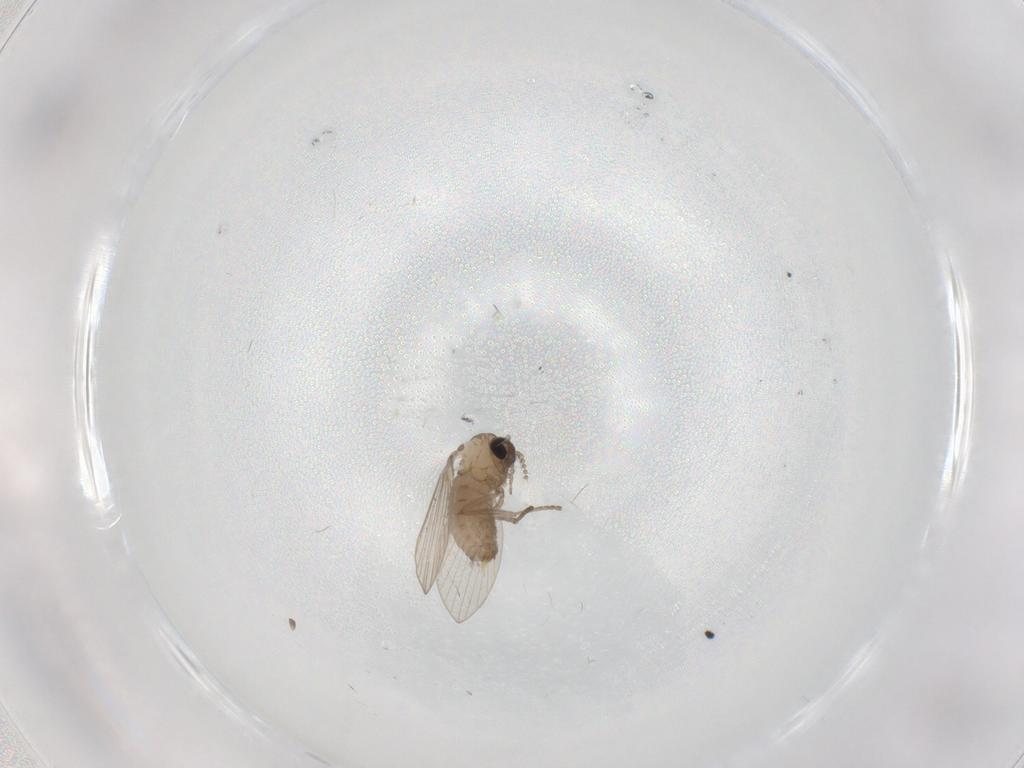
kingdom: Animalia
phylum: Arthropoda
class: Insecta
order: Diptera
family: Psychodidae
